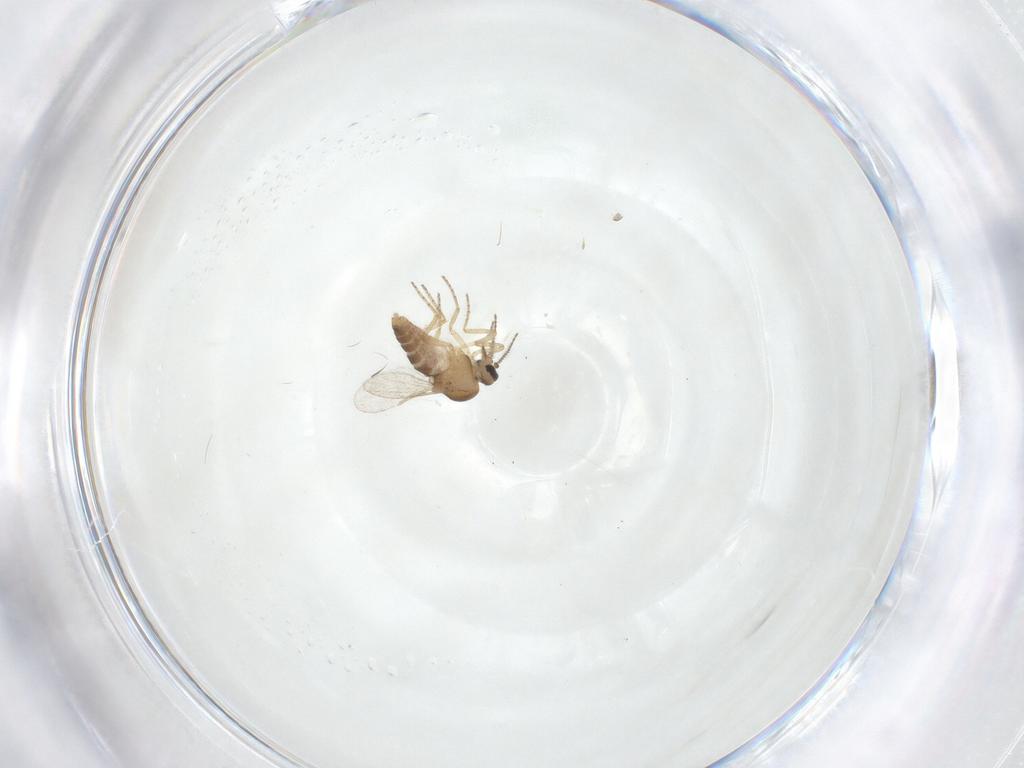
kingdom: Animalia
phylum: Arthropoda
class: Insecta
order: Diptera
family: Ceratopogonidae
